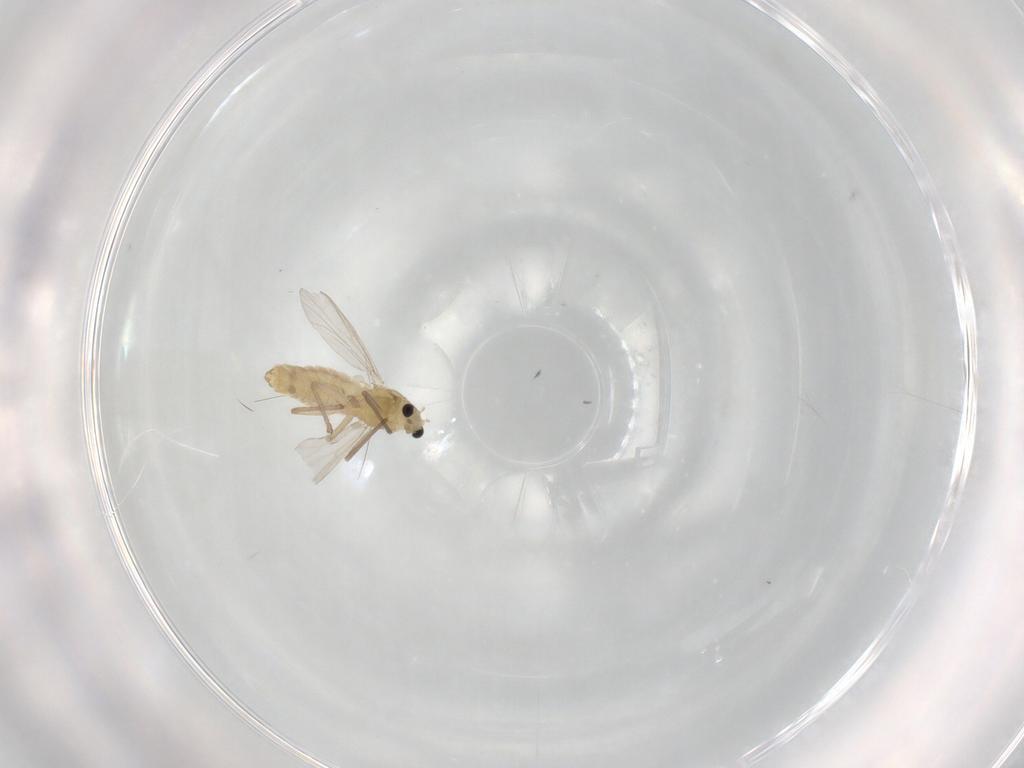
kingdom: Animalia
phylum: Arthropoda
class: Insecta
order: Diptera
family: Chironomidae
